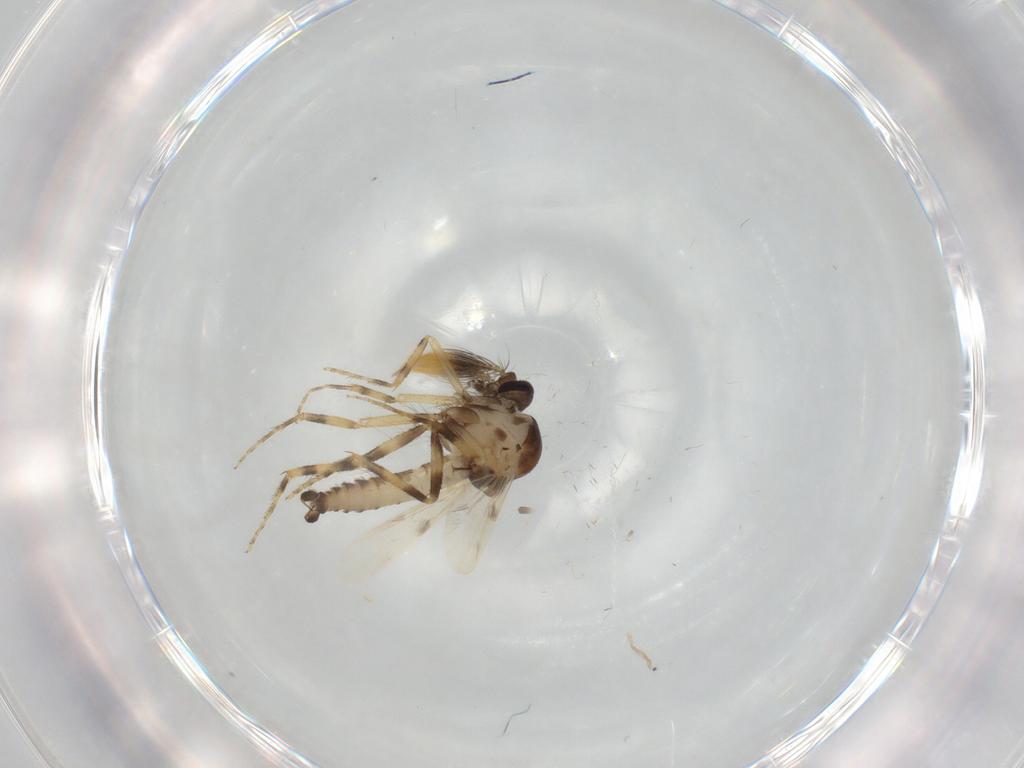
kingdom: Animalia
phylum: Arthropoda
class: Insecta
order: Diptera
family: Ceratopogonidae
